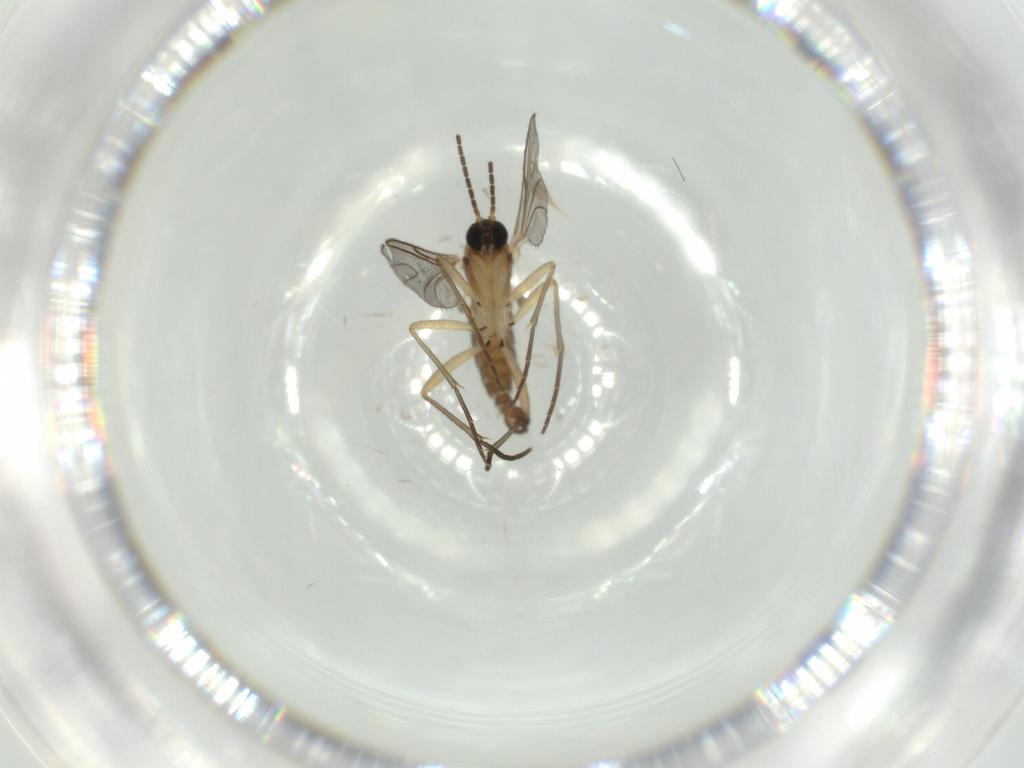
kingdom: Animalia
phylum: Arthropoda
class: Insecta
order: Diptera
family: Sciaridae
